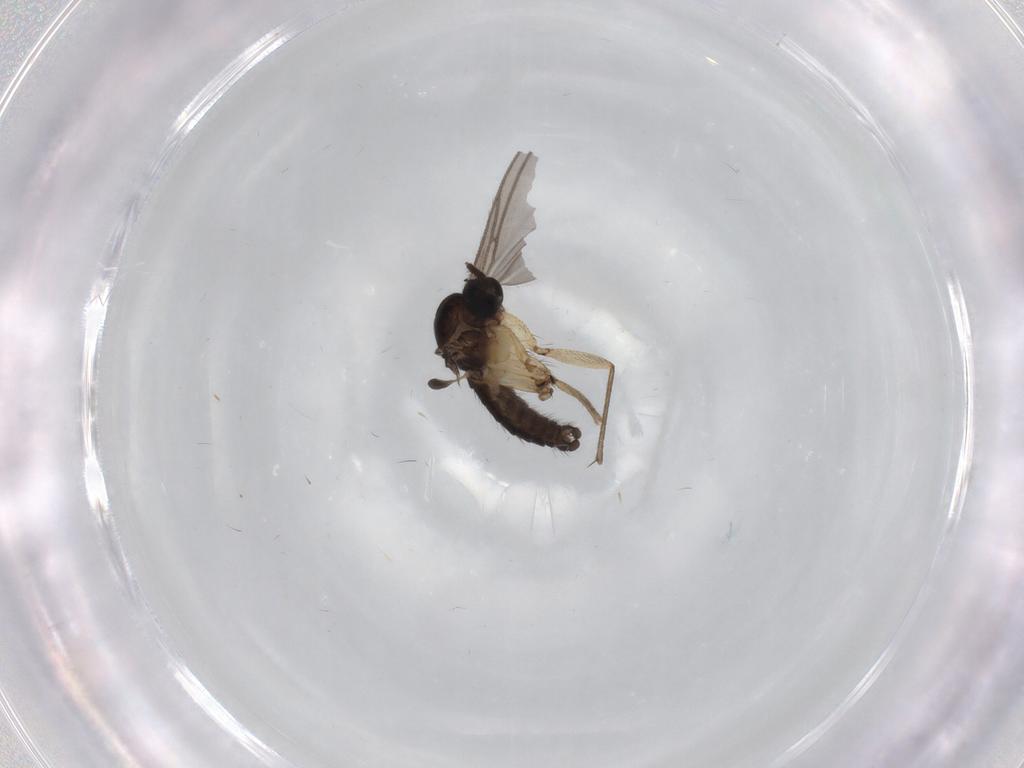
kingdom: Animalia
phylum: Arthropoda
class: Insecta
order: Diptera
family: Sciaridae
